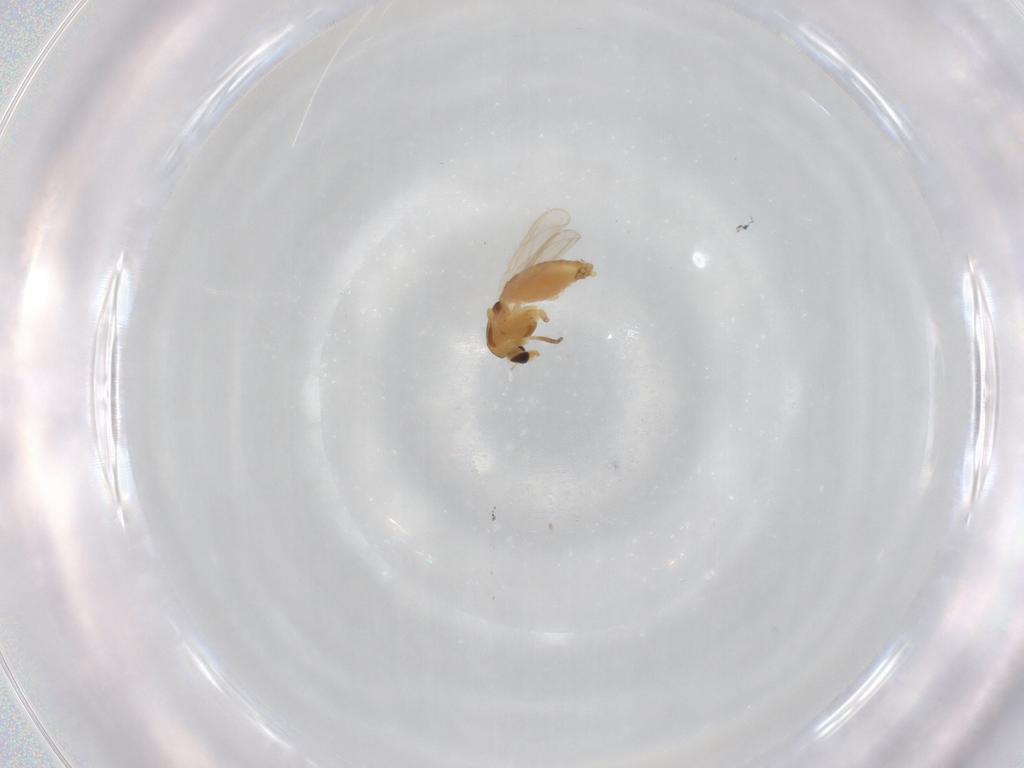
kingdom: Animalia
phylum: Arthropoda
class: Insecta
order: Diptera
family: Chironomidae
